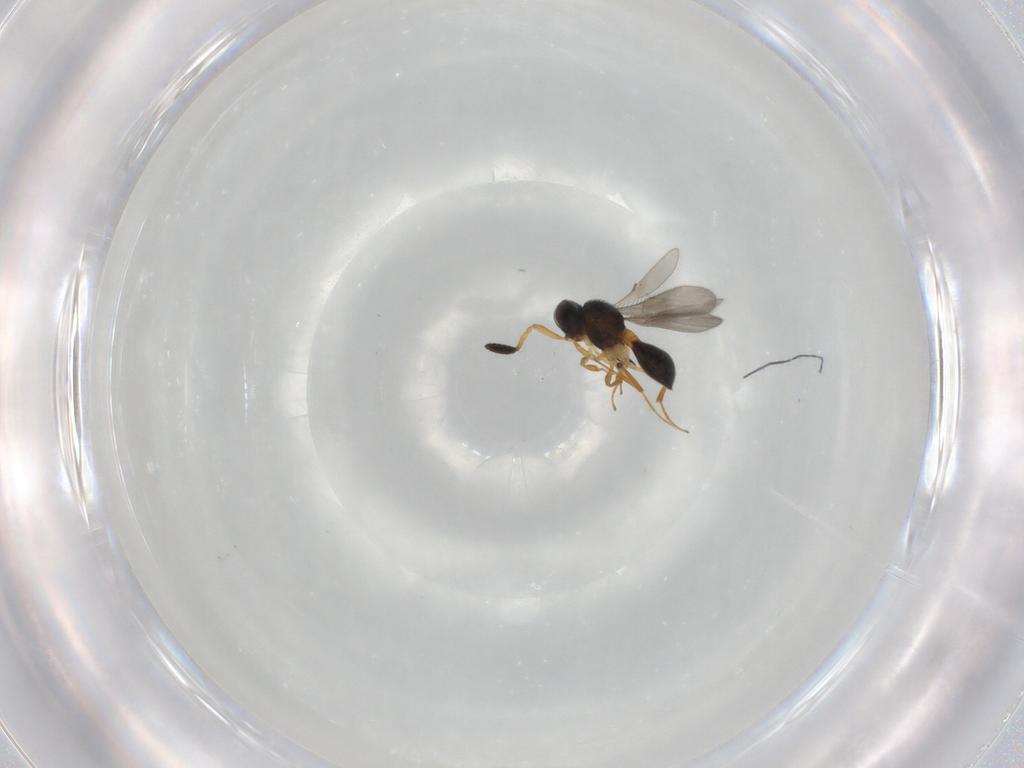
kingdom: Animalia
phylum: Arthropoda
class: Insecta
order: Hymenoptera
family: Scelionidae
